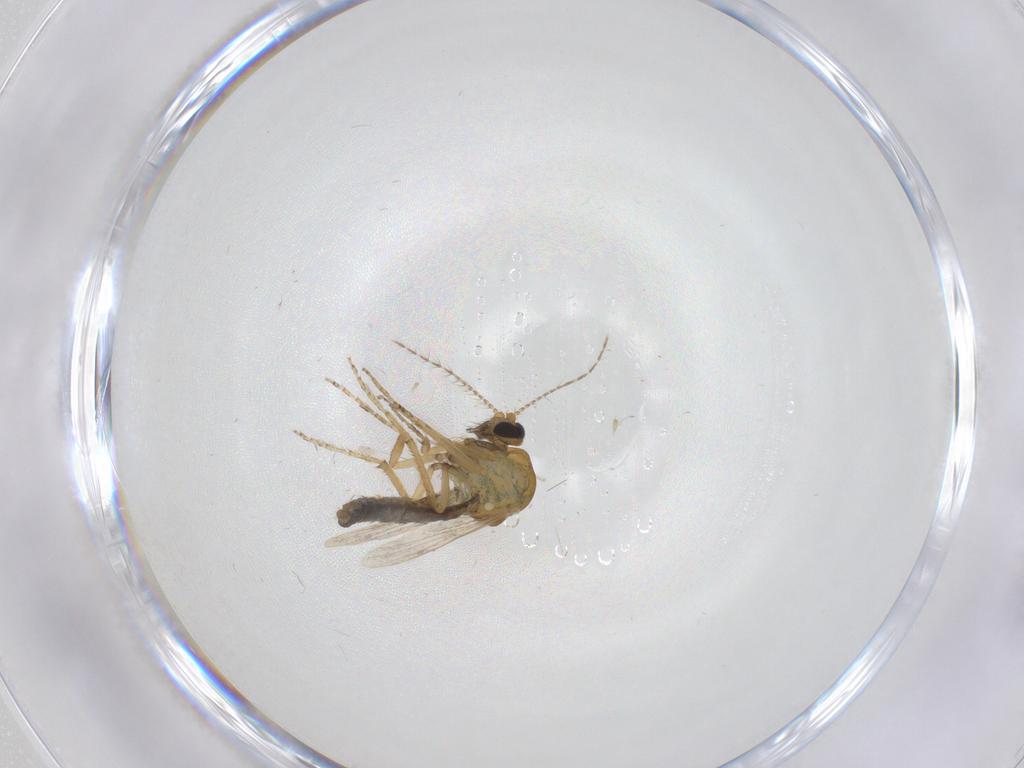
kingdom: Animalia
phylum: Arthropoda
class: Insecta
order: Diptera
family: Ceratopogonidae
